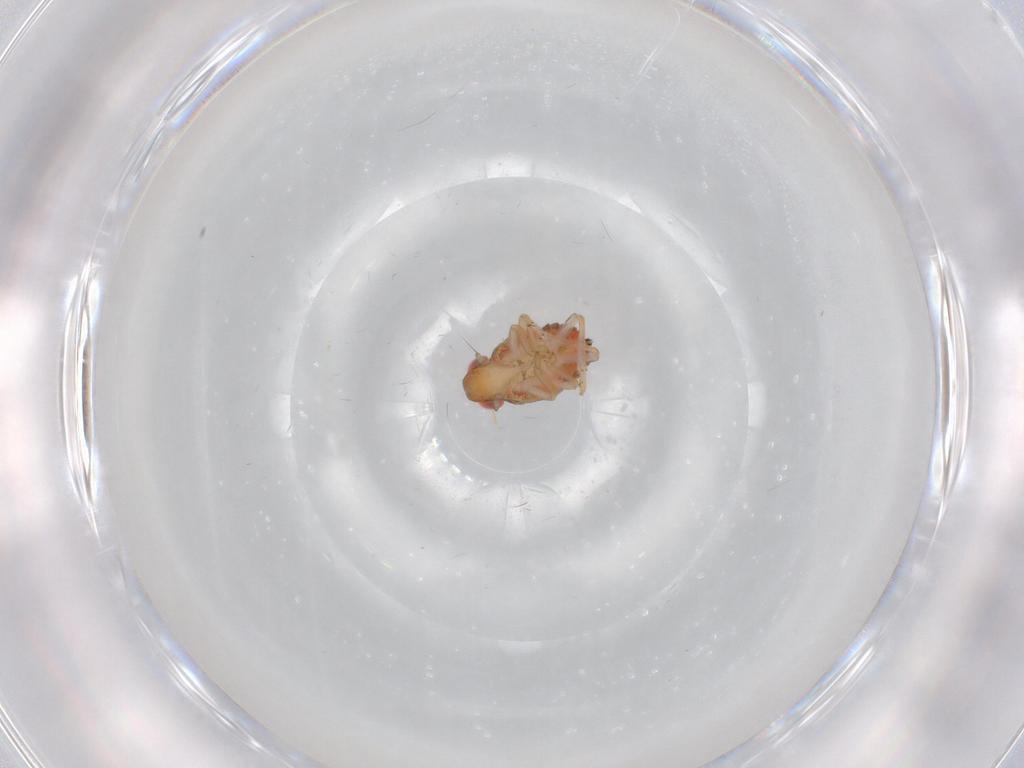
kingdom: Animalia
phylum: Arthropoda
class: Insecta
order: Hemiptera
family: Issidae
